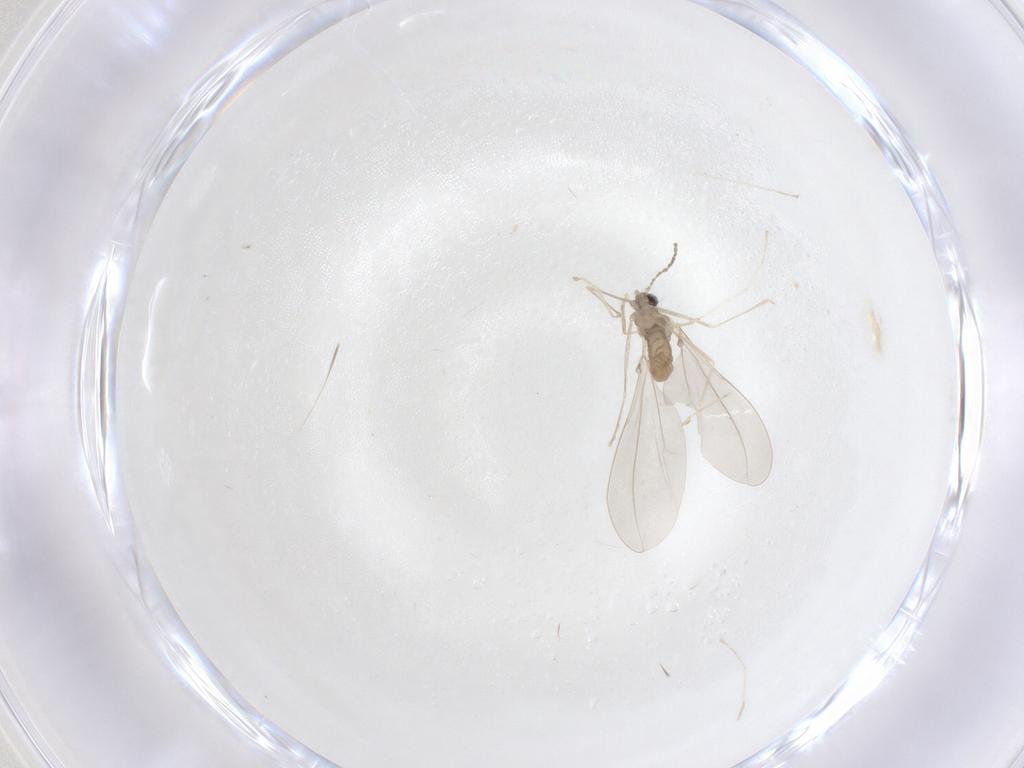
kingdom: Animalia
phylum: Arthropoda
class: Insecta
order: Diptera
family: Cecidomyiidae
